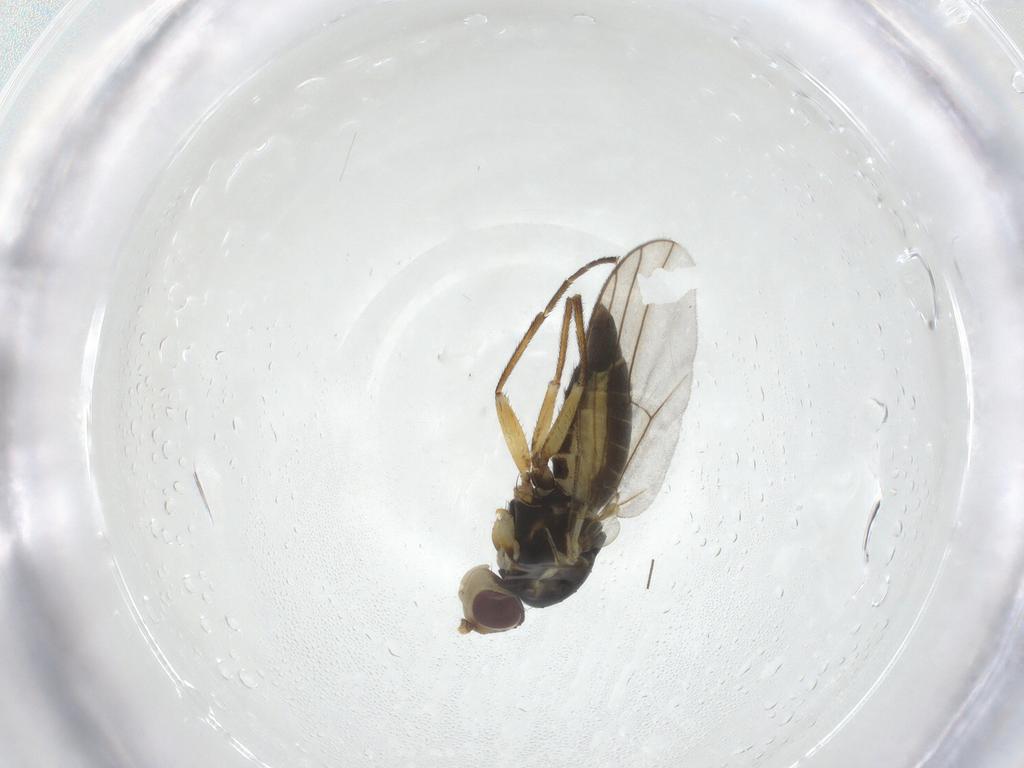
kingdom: Animalia
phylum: Arthropoda
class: Insecta
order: Diptera
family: Agromyzidae
